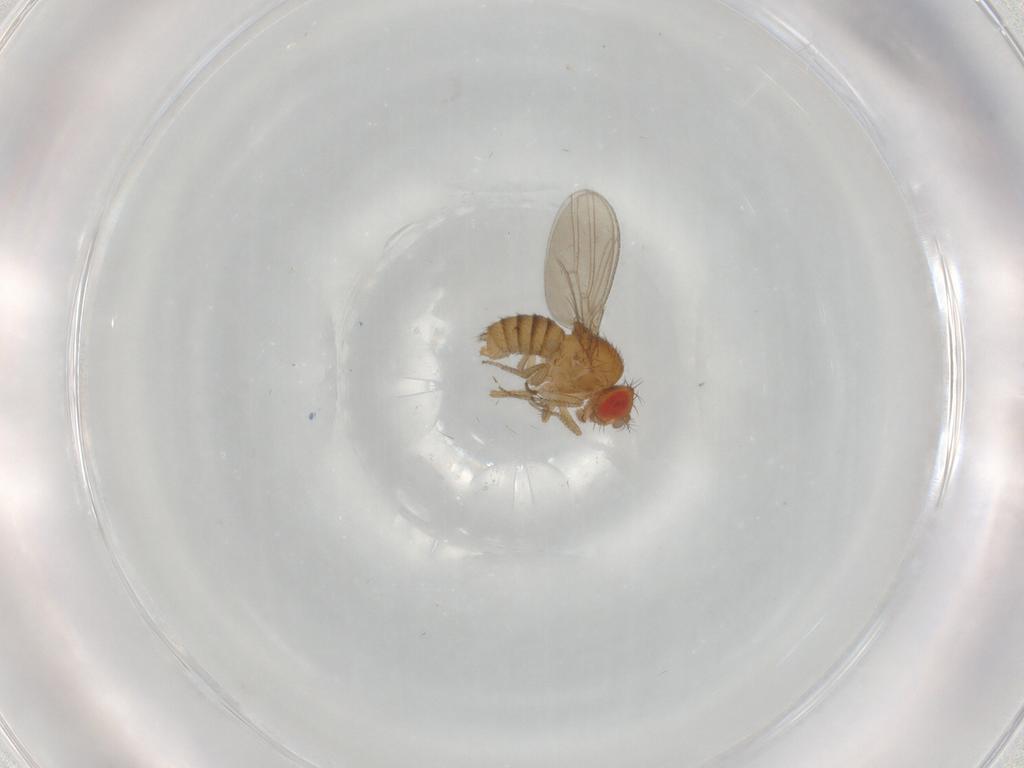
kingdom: Animalia
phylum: Arthropoda
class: Insecta
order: Diptera
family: Drosophilidae
